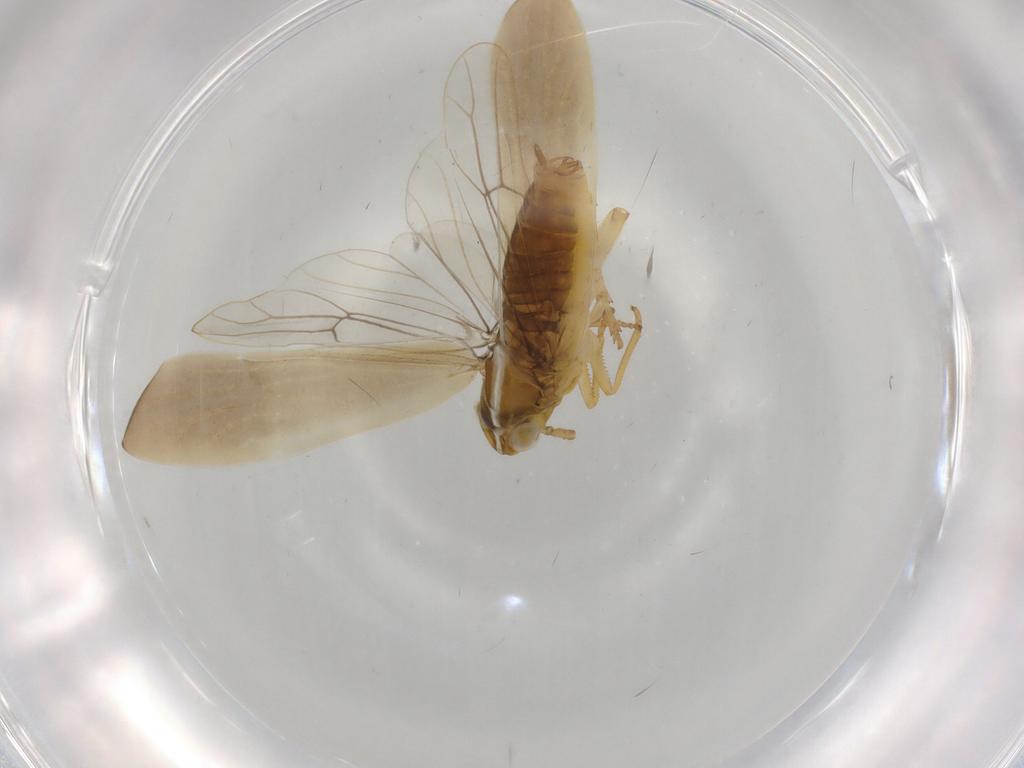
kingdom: Animalia
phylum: Arthropoda
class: Insecta
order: Hemiptera
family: Delphacidae
